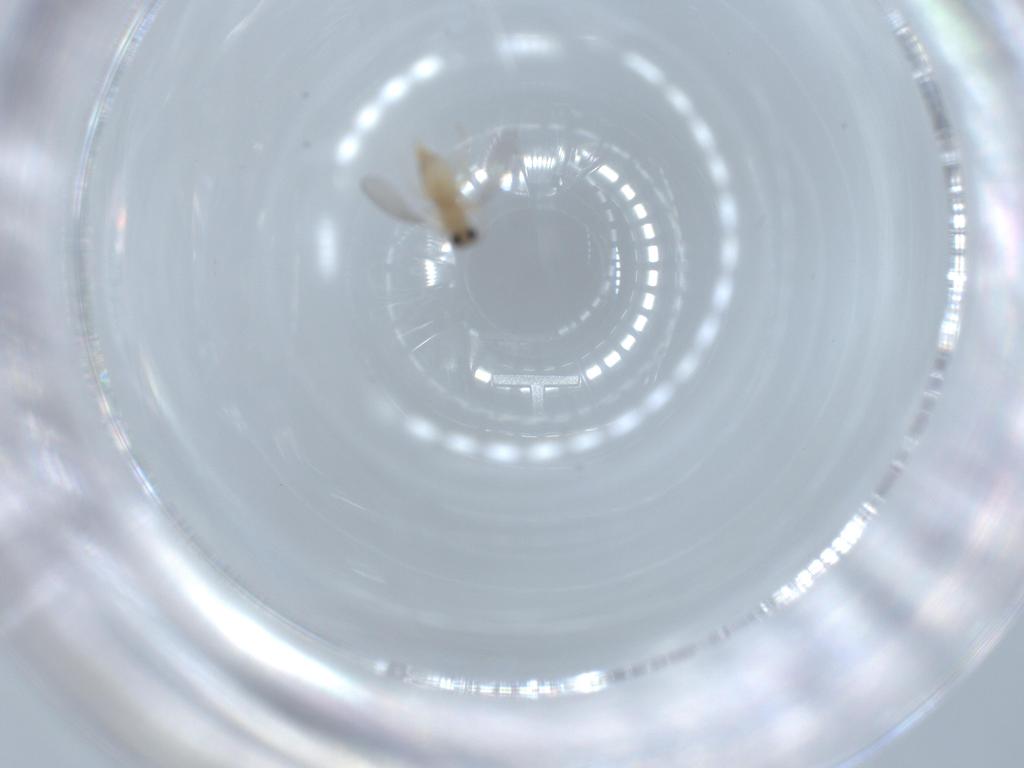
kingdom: Animalia
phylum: Arthropoda
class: Insecta
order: Diptera
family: Cecidomyiidae
